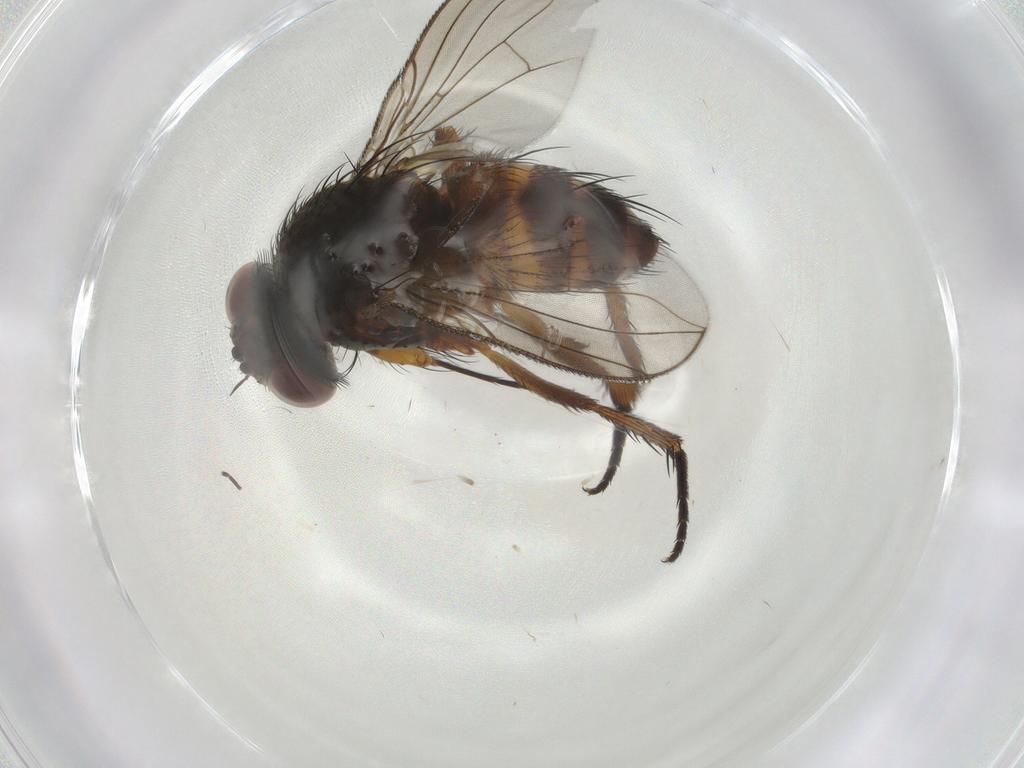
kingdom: Animalia
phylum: Arthropoda
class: Insecta
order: Diptera
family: Tachinidae
